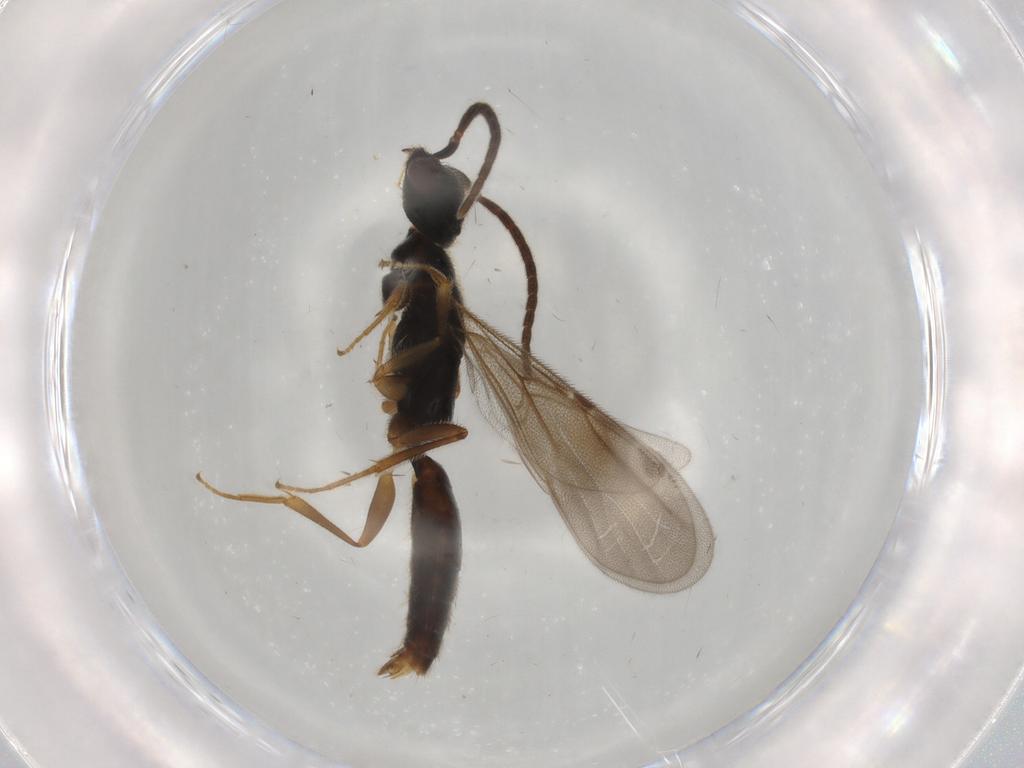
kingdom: Animalia
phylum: Arthropoda
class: Insecta
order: Hymenoptera
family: Bethylidae
